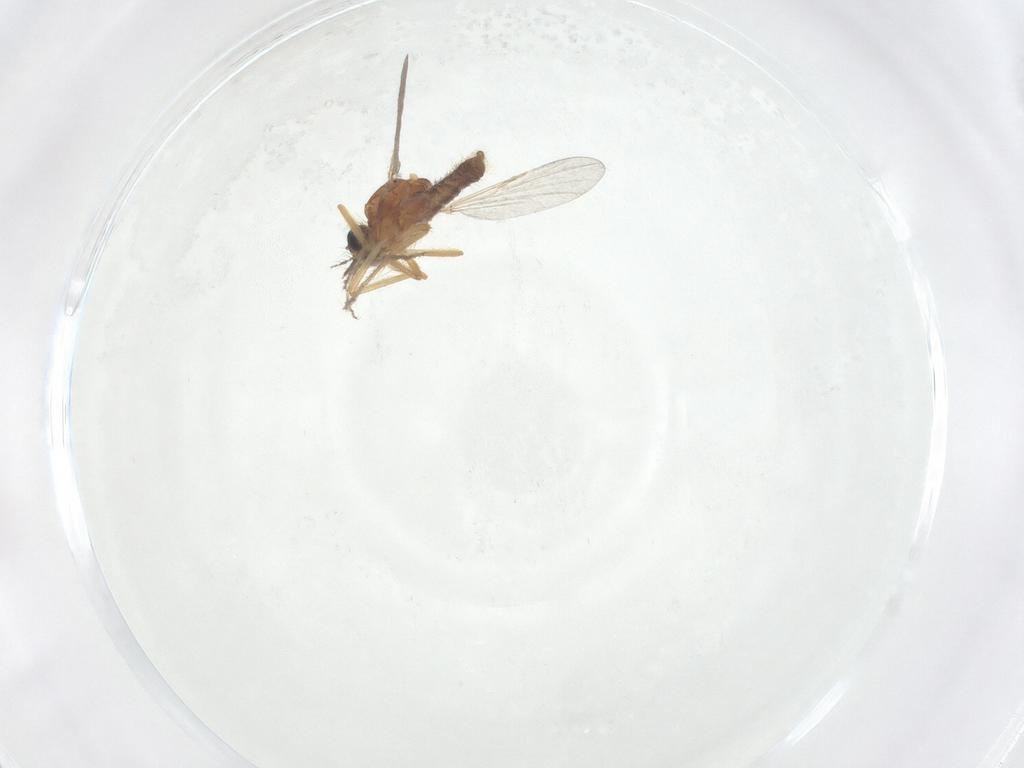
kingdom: Animalia
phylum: Arthropoda
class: Insecta
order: Diptera
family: Ceratopogonidae
